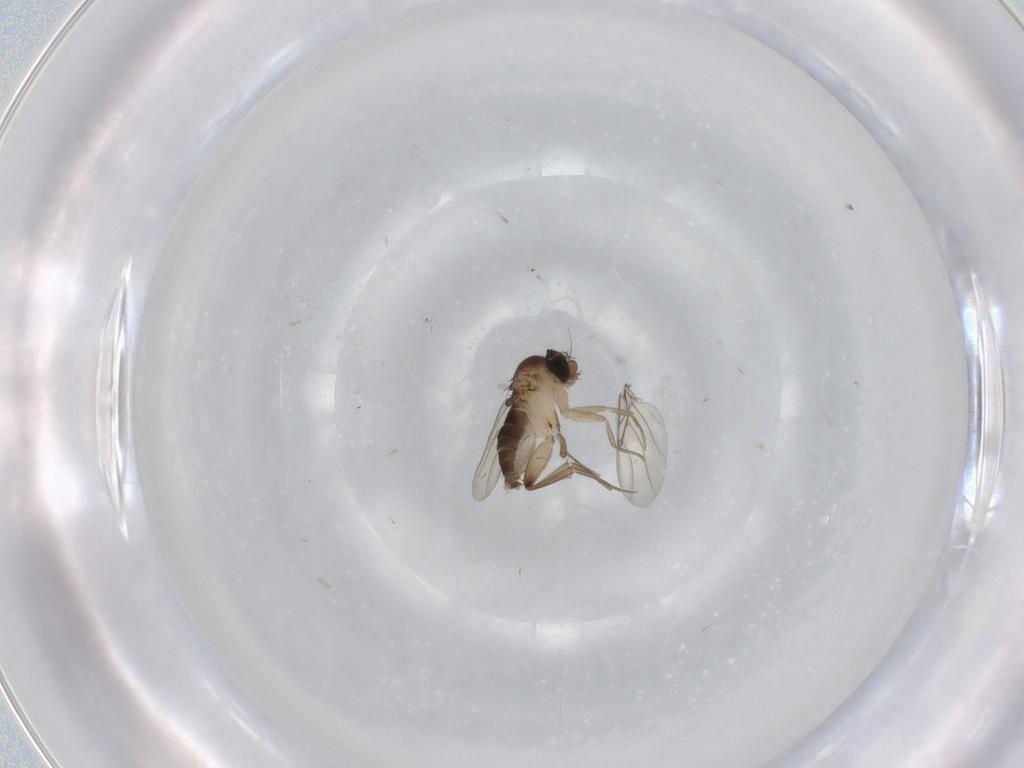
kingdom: Animalia
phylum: Arthropoda
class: Insecta
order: Diptera
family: Phoridae
